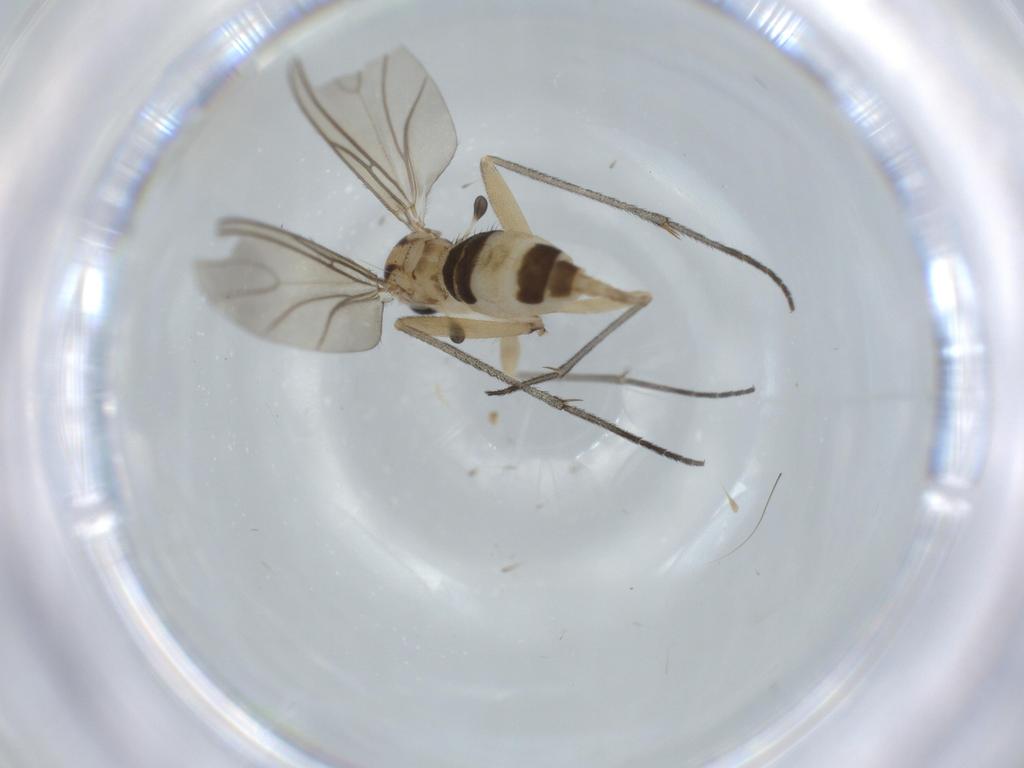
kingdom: Animalia
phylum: Arthropoda
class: Insecta
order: Diptera
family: Sciaridae
